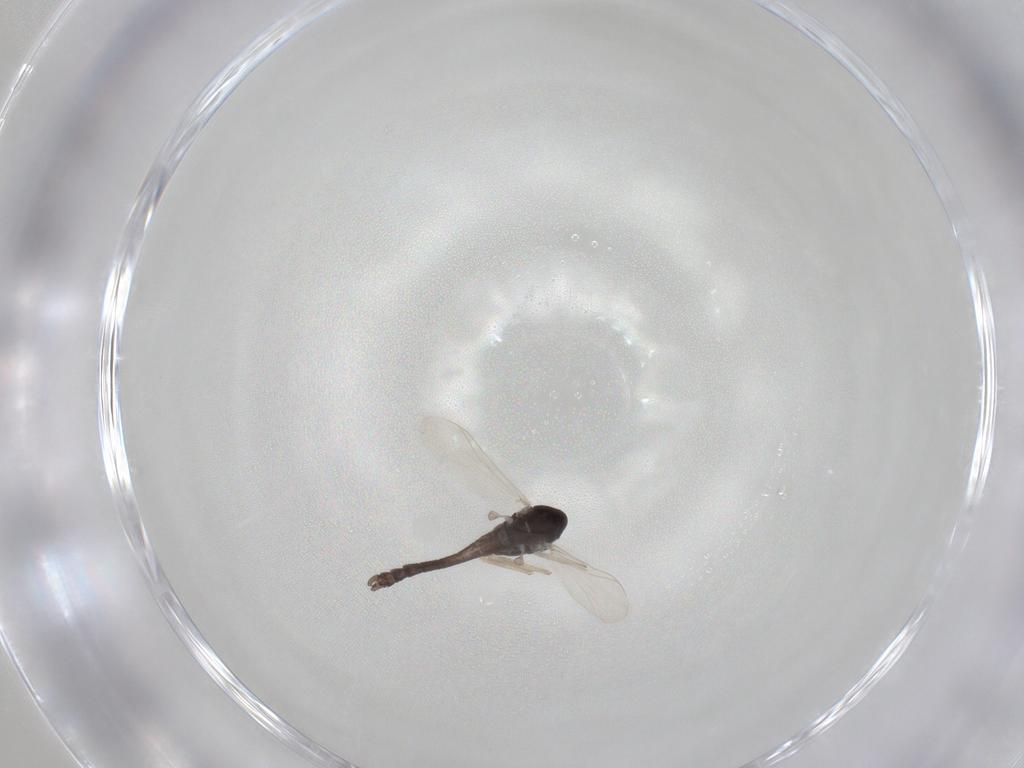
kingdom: Animalia
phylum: Arthropoda
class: Insecta
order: Diptera
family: Chironomidae
